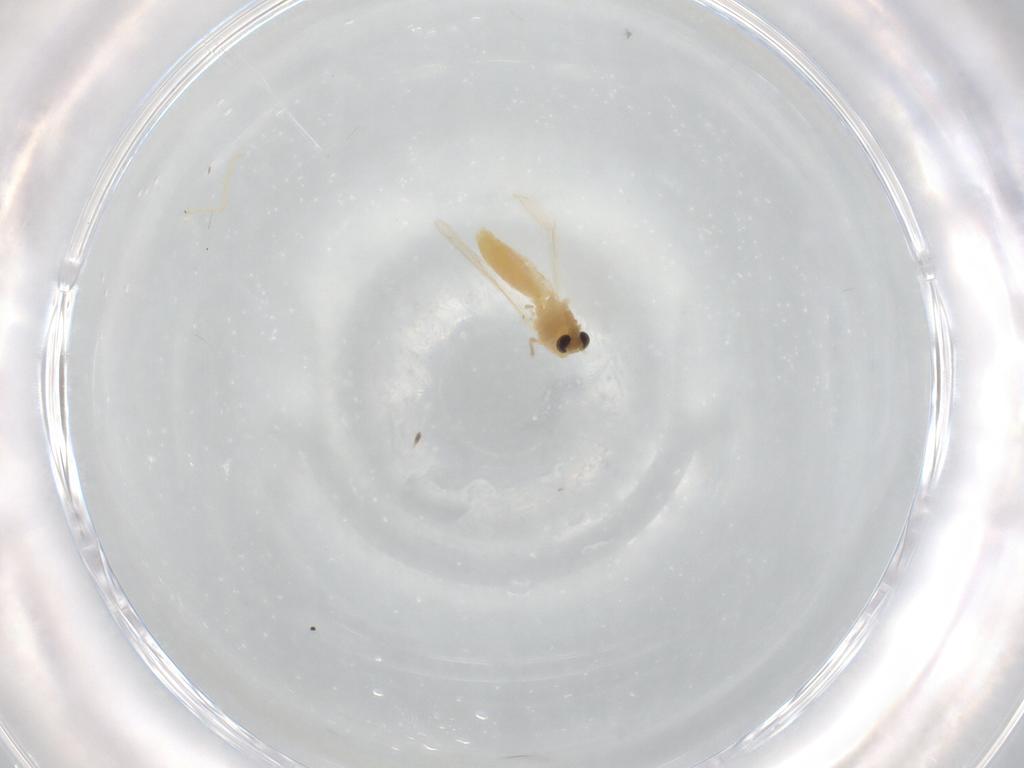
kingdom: Animalia
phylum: Arthropoda
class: Insecta
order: Diptera
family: Chironomidae
